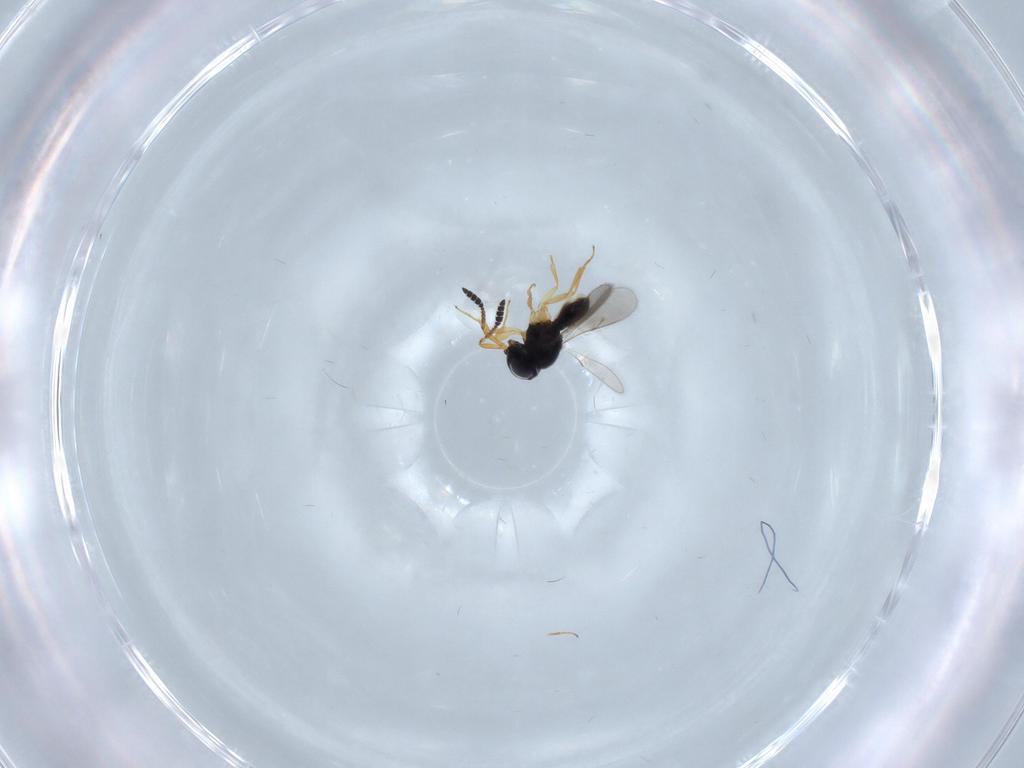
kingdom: Animalia
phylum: Arthropoda
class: Insecta
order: Hymenoptera
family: Scelionidae
